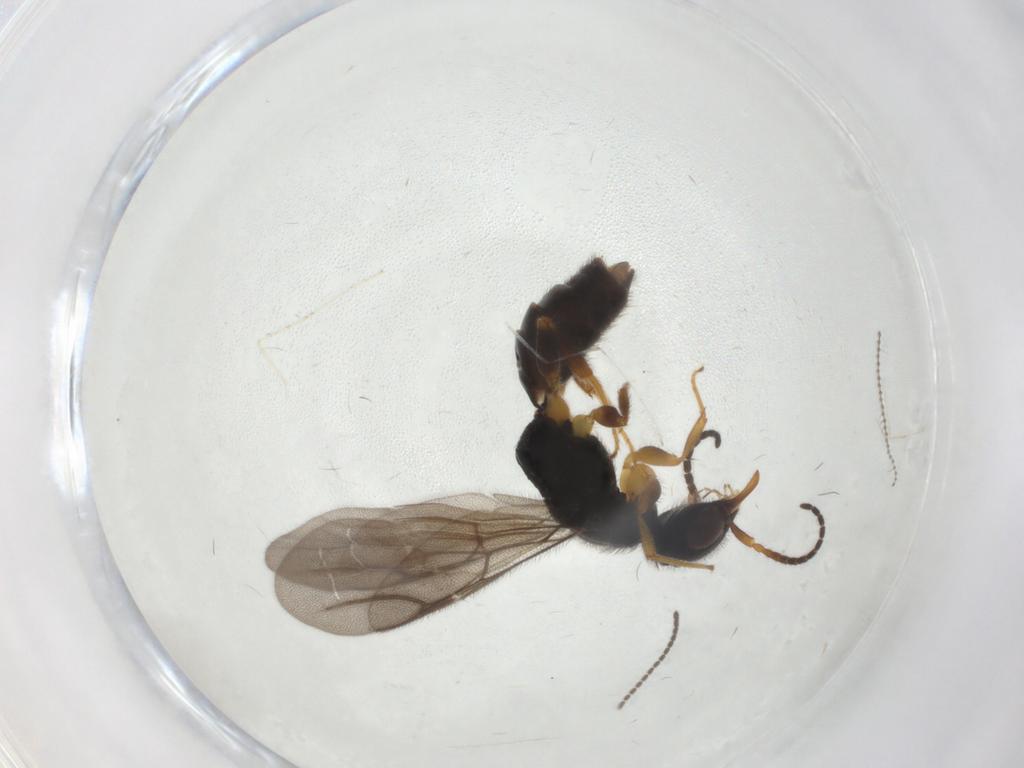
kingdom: Animalia
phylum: Arthropoda
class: Insecta
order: Hymenoptera
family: Bethylidae
